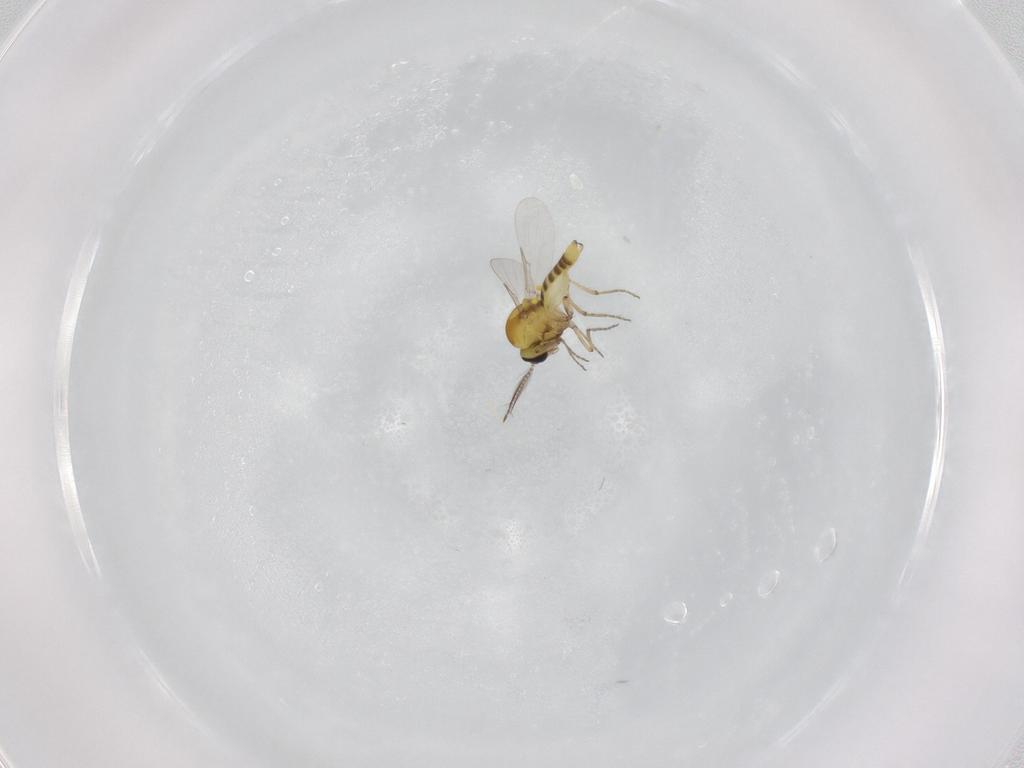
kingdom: Animalia
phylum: Arthropoda
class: Insecta
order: Diptera
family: Ceratopogonidae
